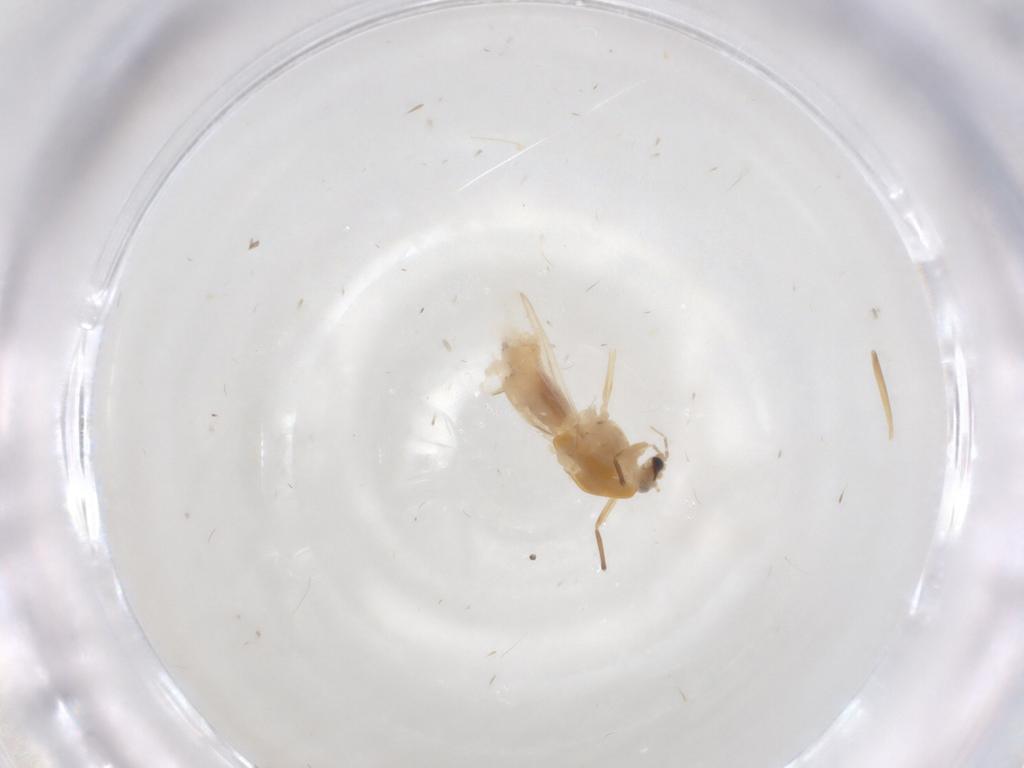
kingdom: Animalia
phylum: Arthropoda
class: Insecta
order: Diptera
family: Chironomidae
